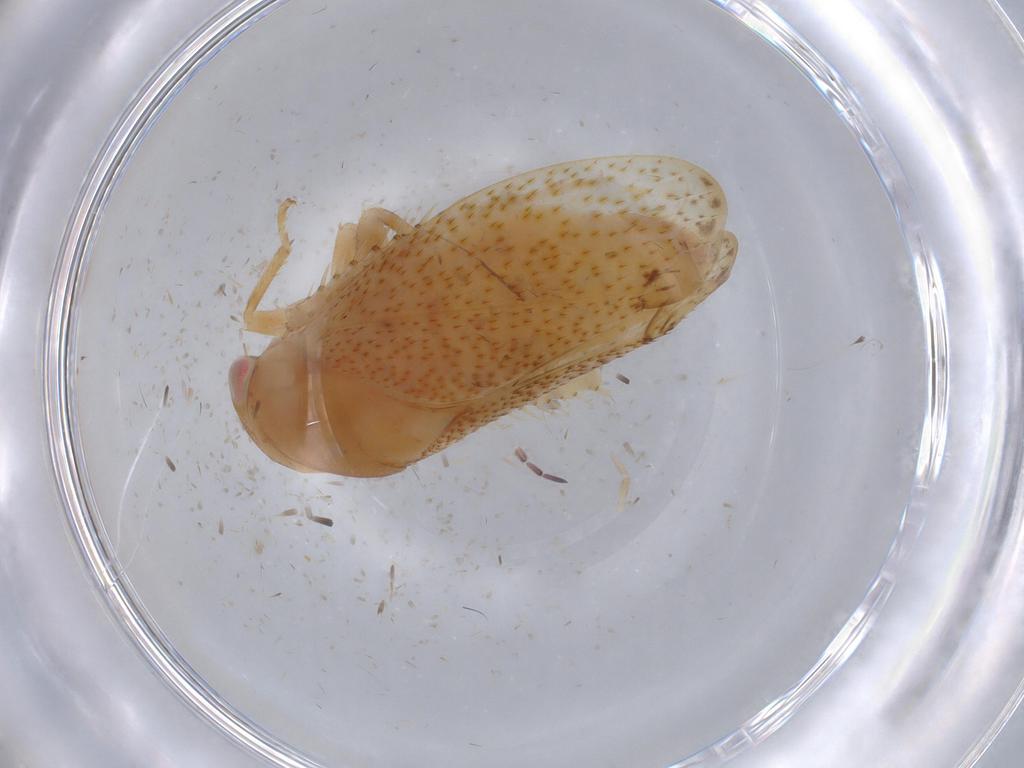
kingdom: Animalia
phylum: Arthropoda
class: Insecta
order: Hemiptera
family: Cicadellidae
